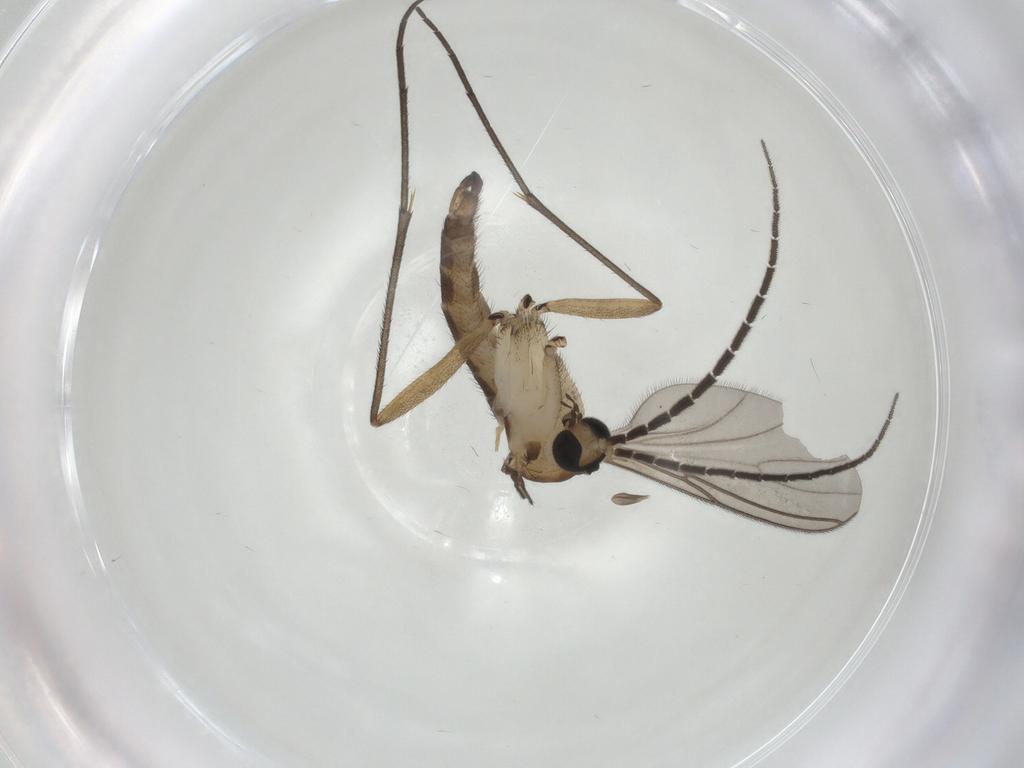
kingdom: Animalia
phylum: Arthropoda
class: Insecta
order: Diptera
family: Sciaridae
